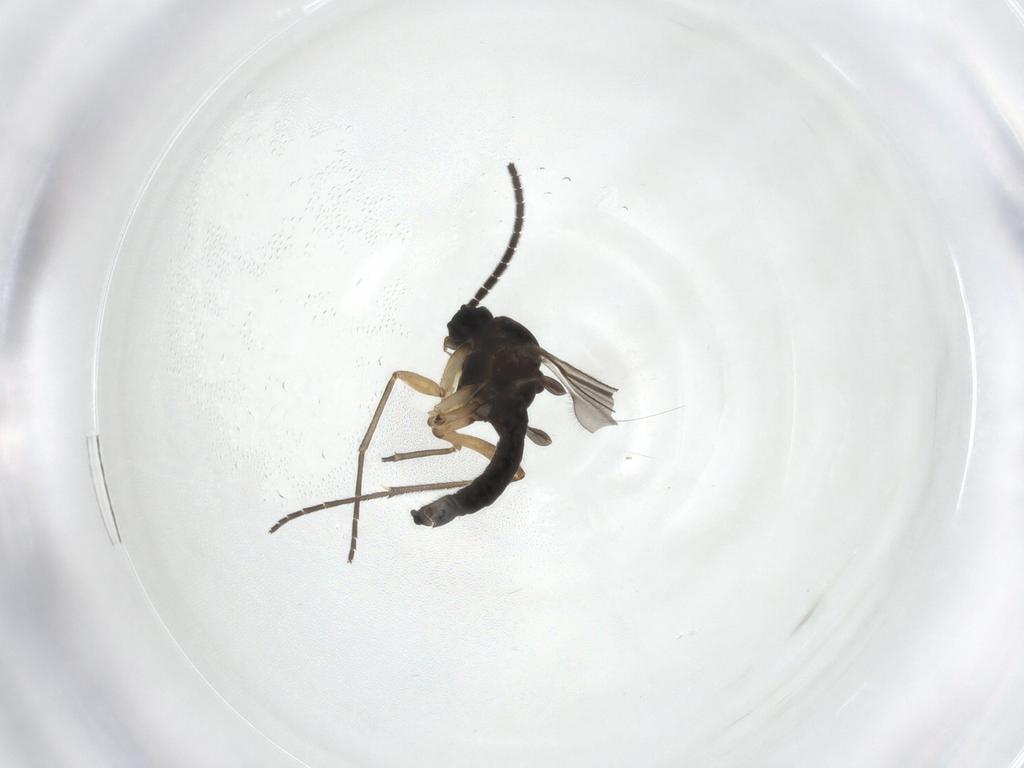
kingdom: Animalia
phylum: Arthropoda
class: Insecta
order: Diptera
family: Sciaridae
